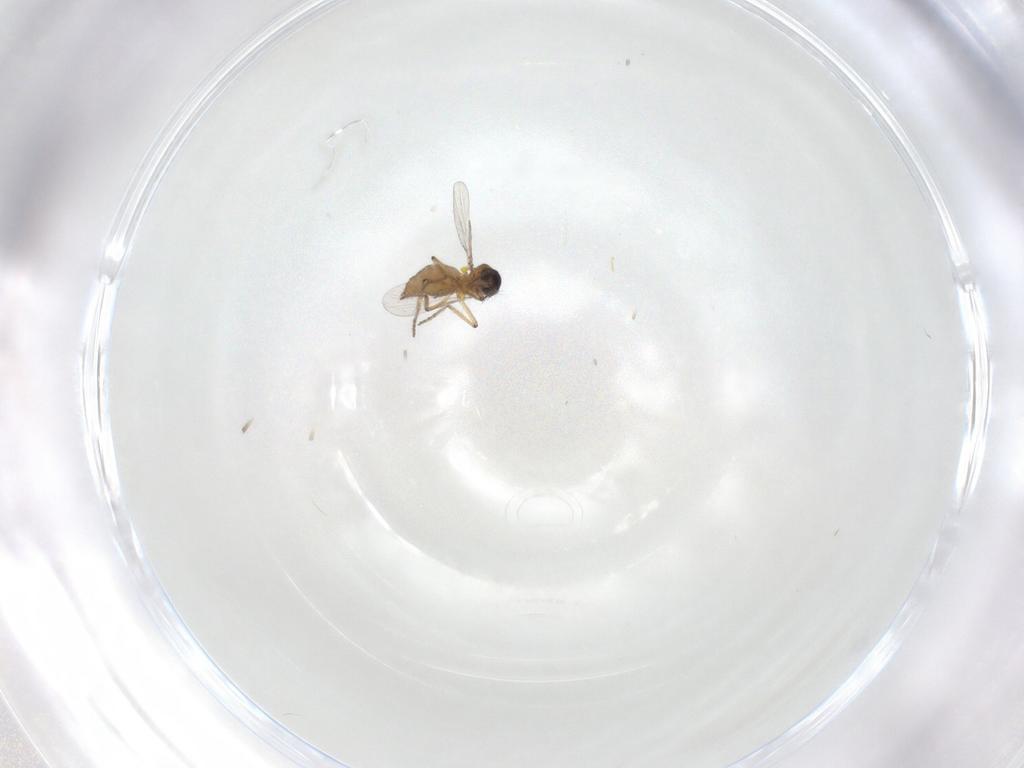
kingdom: Animalia
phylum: Arthropoda
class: Insecta
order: Diptera
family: Ceratopogonidae
